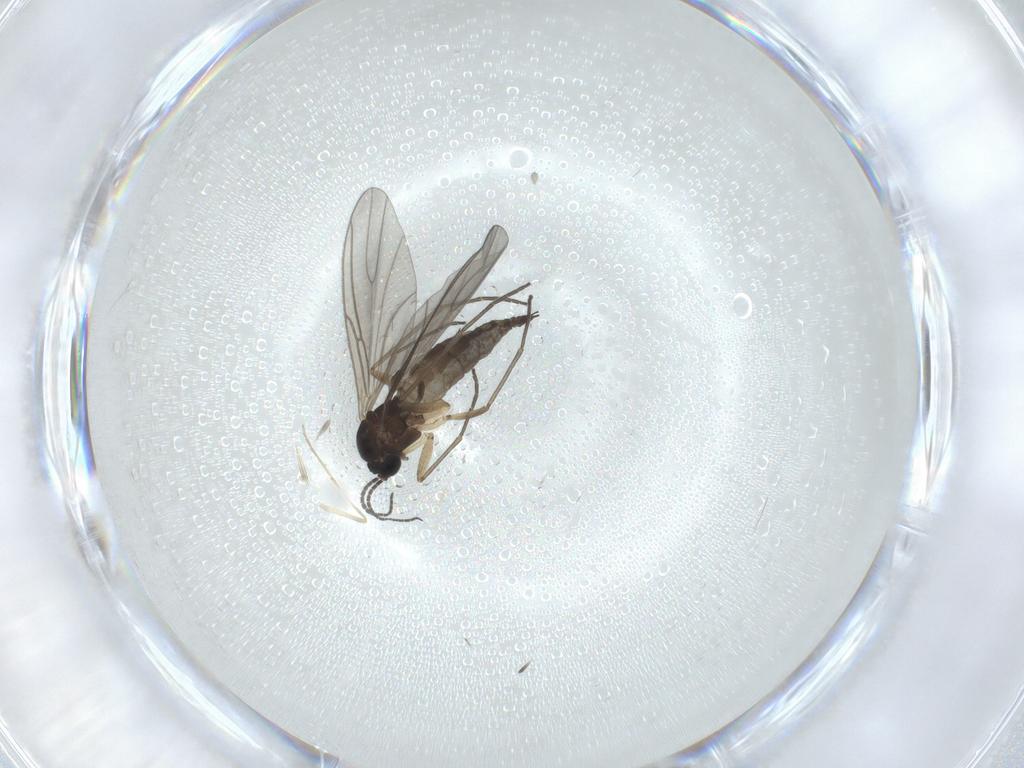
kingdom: Animalia
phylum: Arthropoda
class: Insecta
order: Diptera
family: Sciaridae
